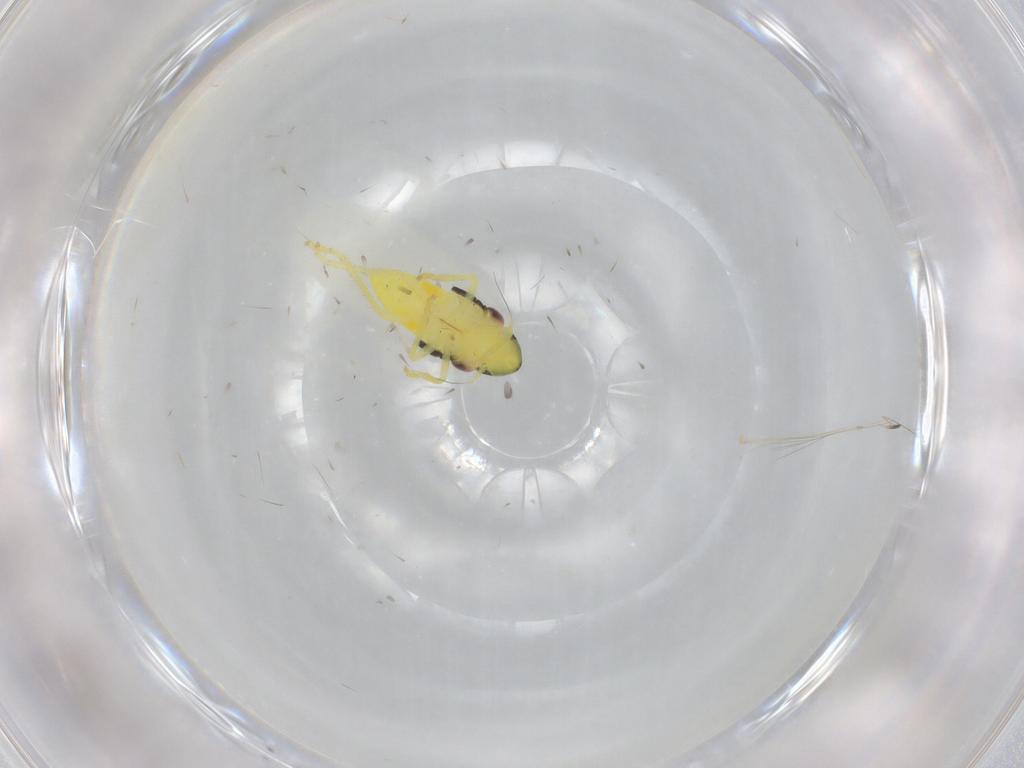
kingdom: Animalia
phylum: Arthropoda
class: Insecta
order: Hemiptera
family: Cicadellidae
